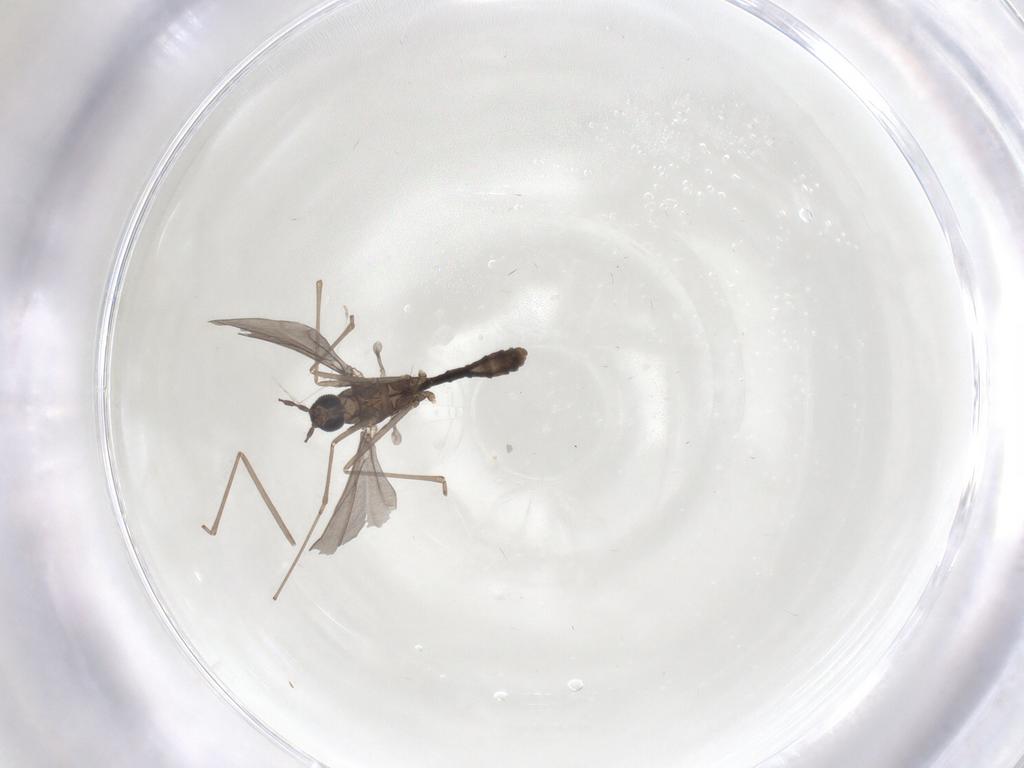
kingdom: Animalia
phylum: Arthropoda
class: Insecta
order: Diptera
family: Cecidomyiidae
